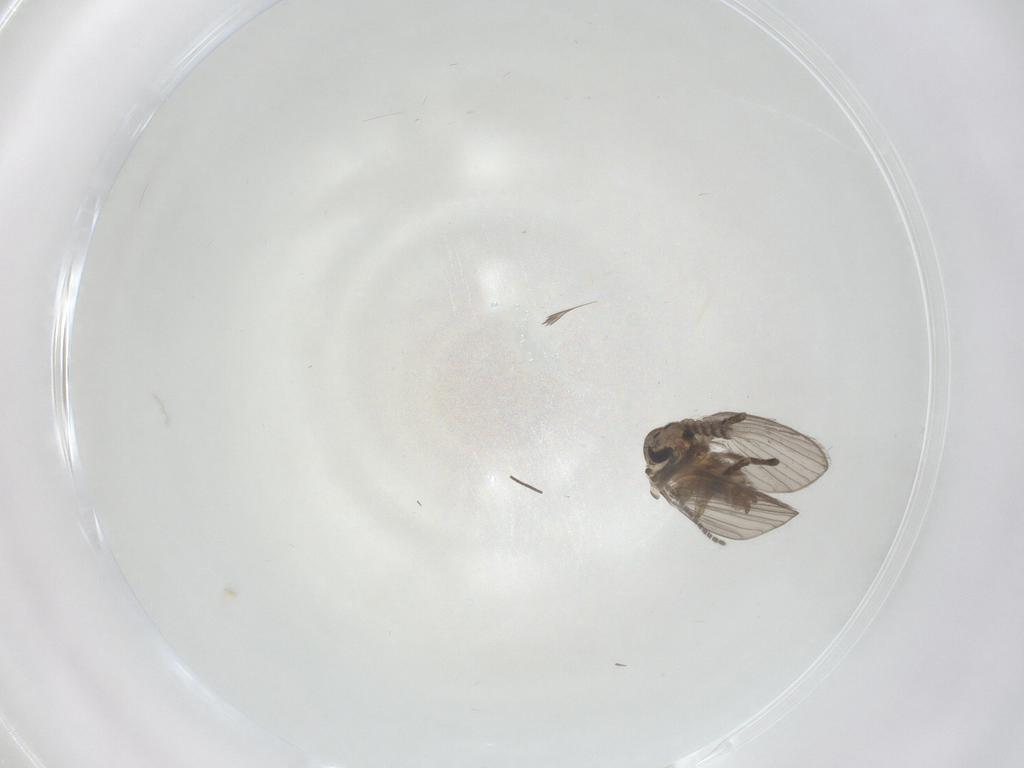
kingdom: Animalia
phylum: Arthropoda
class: Insecta
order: Diptera
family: Psychodidae
